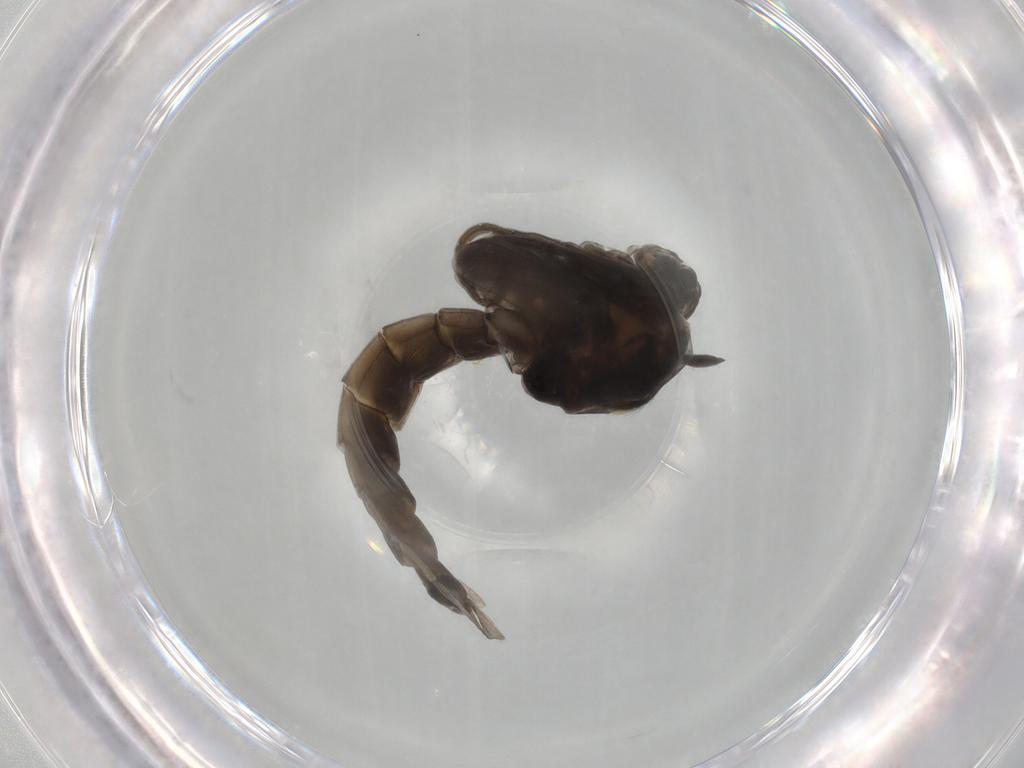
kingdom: Animalia
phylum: Arthropoda
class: Insecta
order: Diptera
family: Chironomidae
